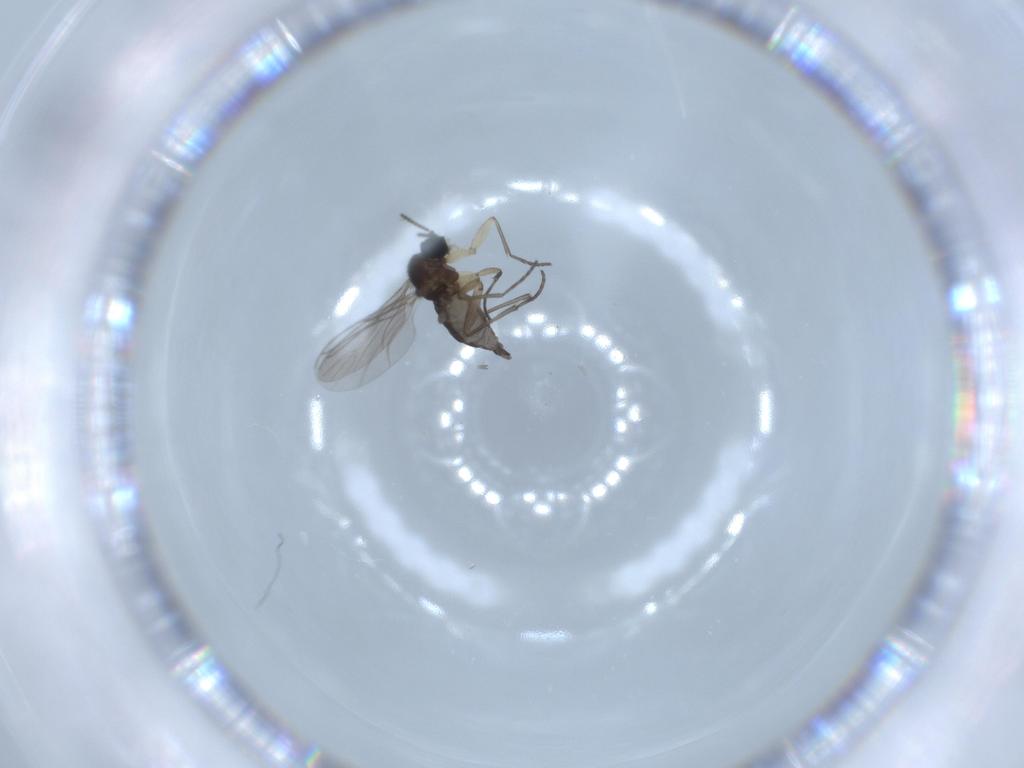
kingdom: Animalia
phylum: Arthropoda
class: Insecta
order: Diptera
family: Sciaridae
